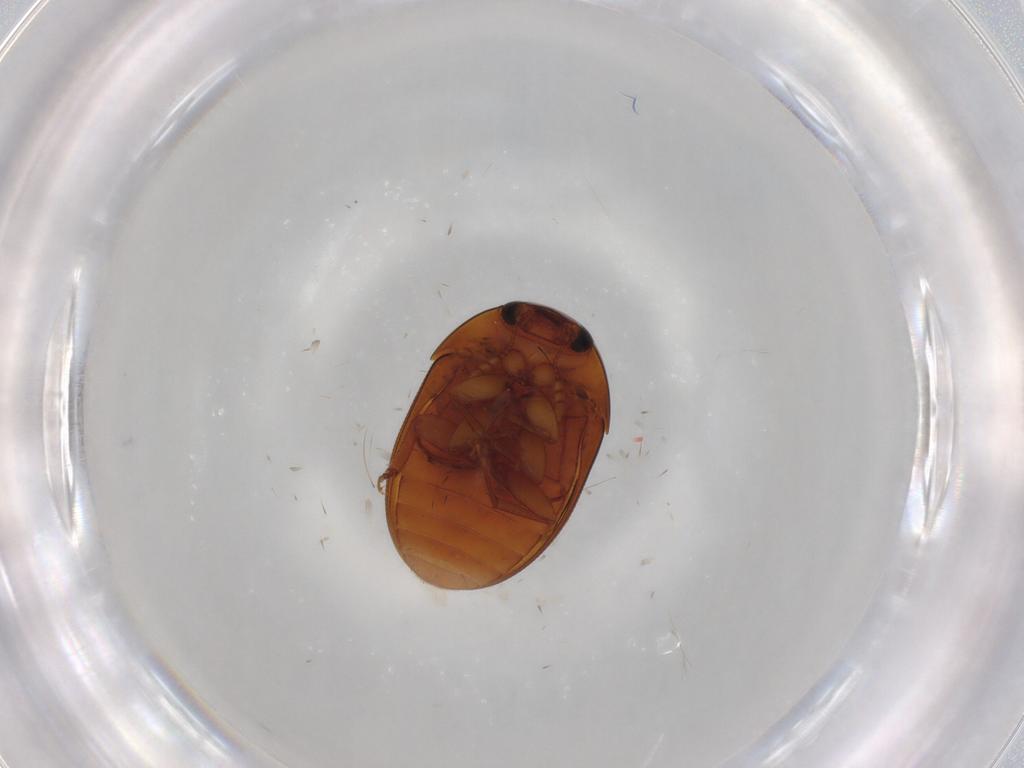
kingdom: Animalia
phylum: Arthropoda
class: Insecta
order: Coleoptera
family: Phalacridae
